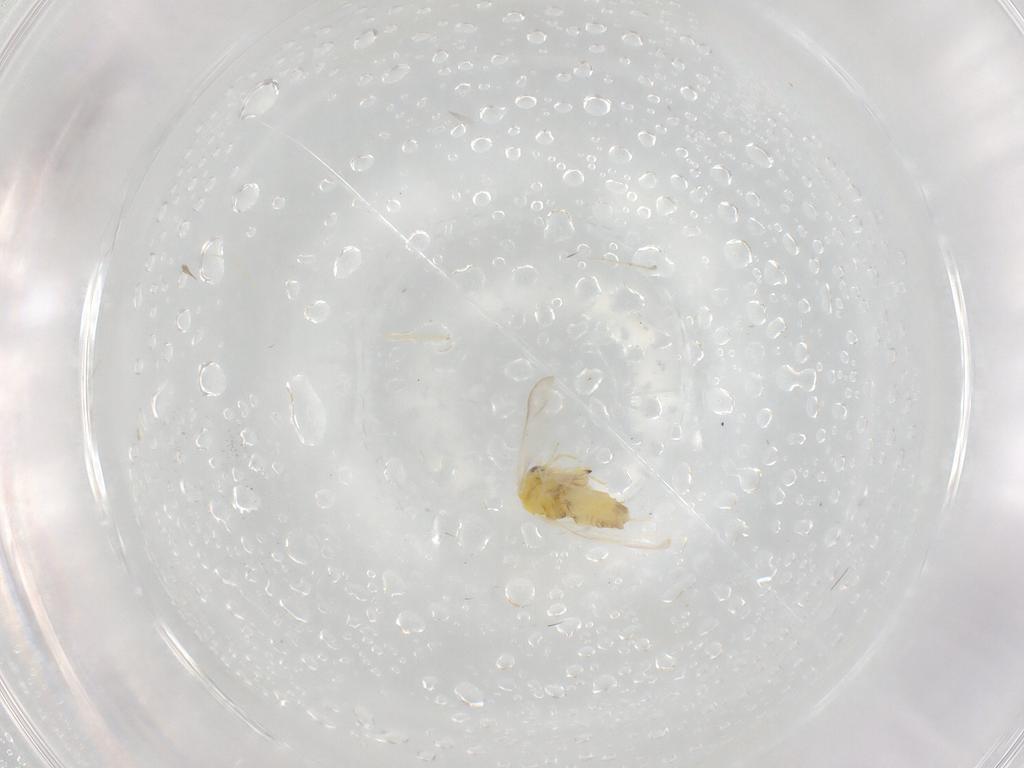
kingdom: Animalia
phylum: Arthropoda
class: Insecta
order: Hemiptera
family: Aleyrodidae
